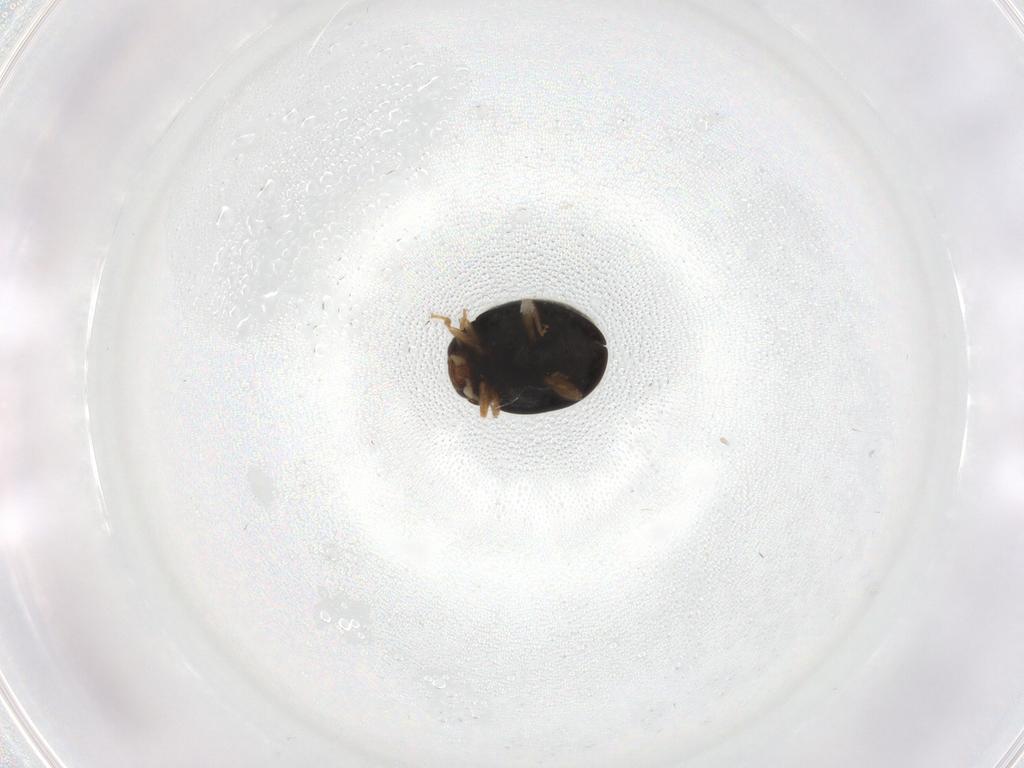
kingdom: Animalia
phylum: Arthropoda
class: Insecta
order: Coleoptera
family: Coccinellidae
